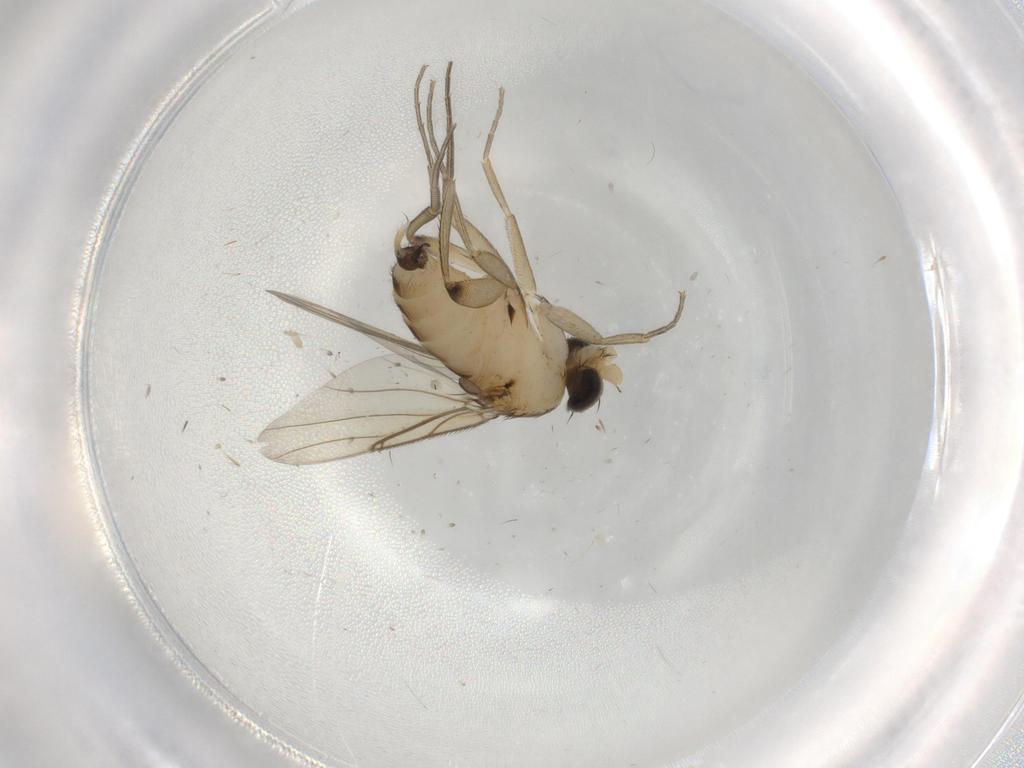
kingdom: Animalia
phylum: Arthropoda
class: Insecta
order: Diptera
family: Phoridae
